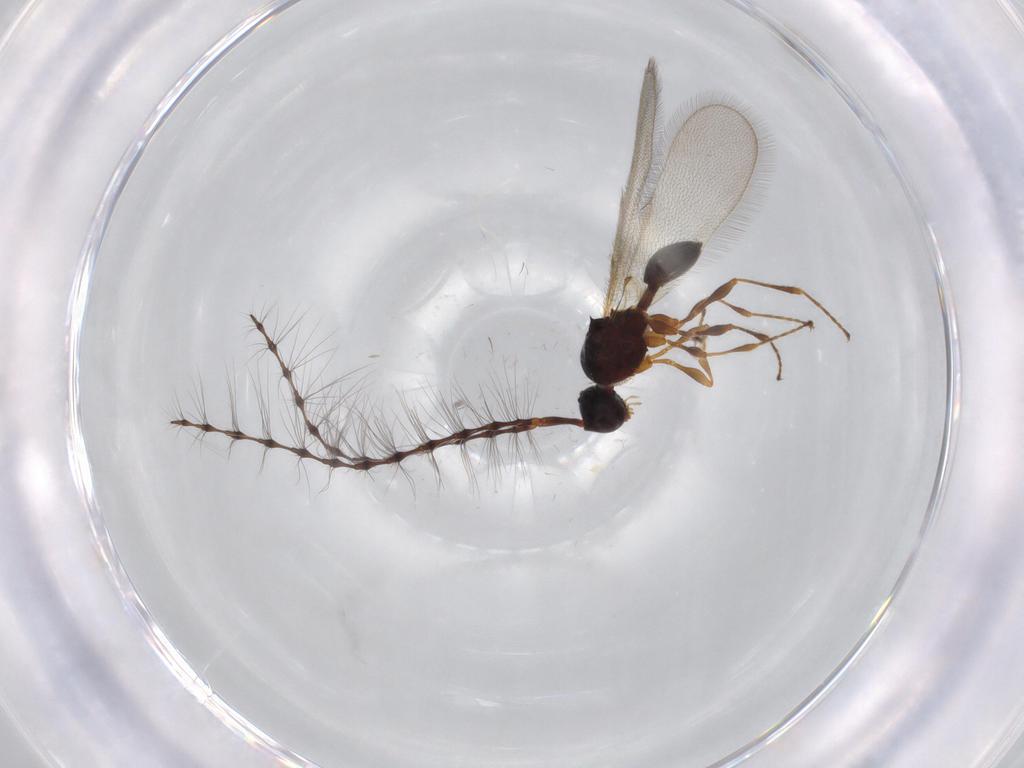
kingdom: Animalia
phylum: Arthropoda
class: Insecta
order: Hymenoptera
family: Diapriidae
